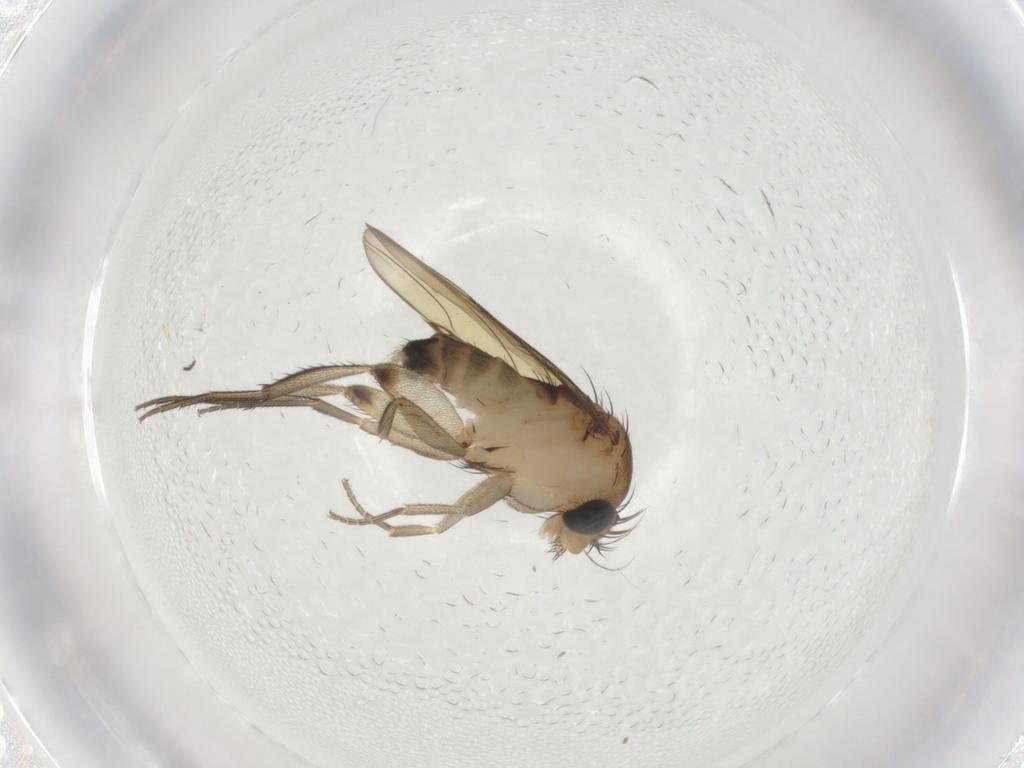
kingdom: Animalia
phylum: Arthropoda
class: Insecta
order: Diptera
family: Phoridae
